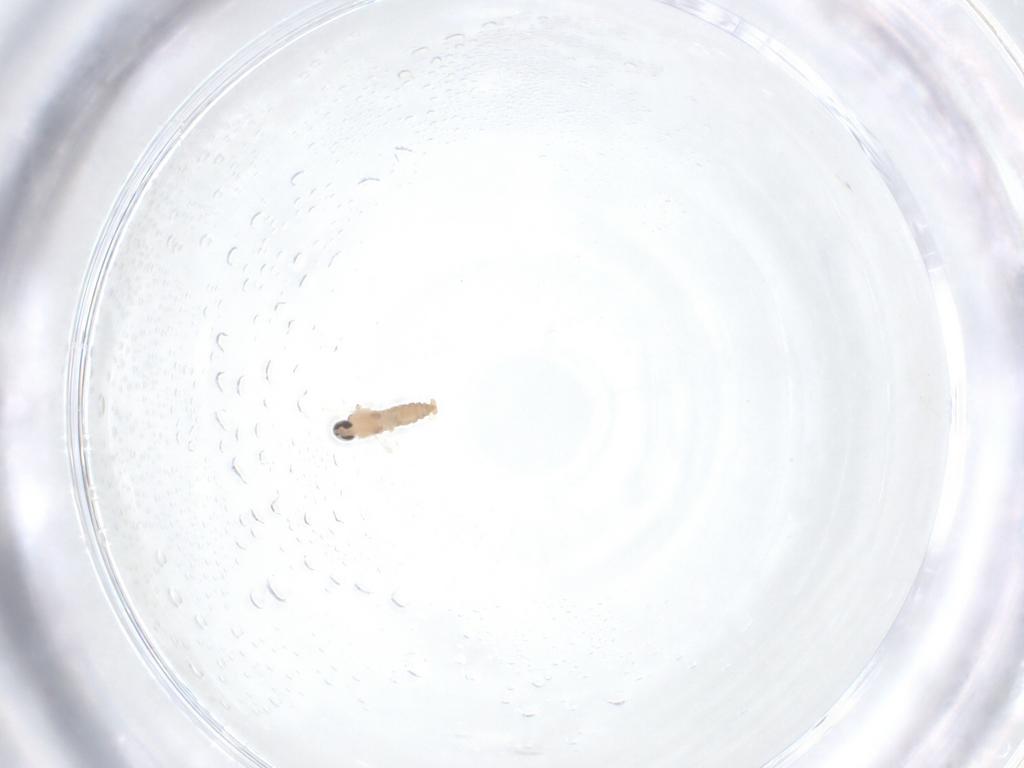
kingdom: Animalia
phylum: Arthropoda
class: Insecta
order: Diptera
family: Cecidomyiidae
